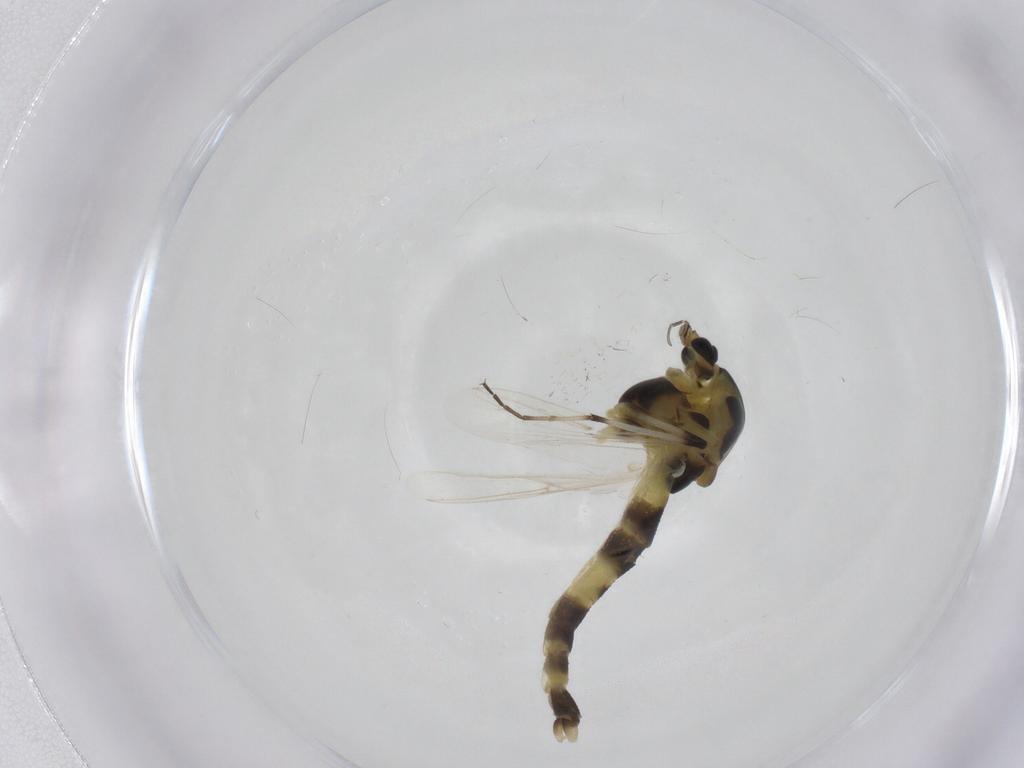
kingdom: Animalia
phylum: Arthropoda
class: Insecta
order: Diptera
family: Chironomidae
